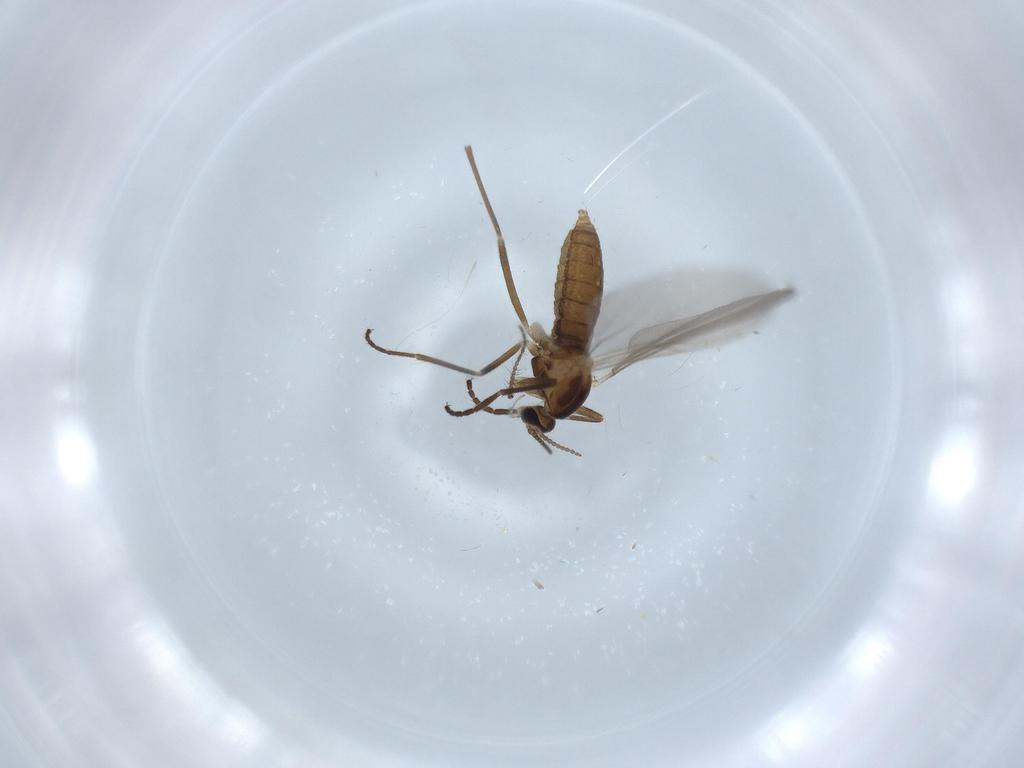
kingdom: Animalia
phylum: Arthropoda
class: Insecta
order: Diptera
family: Cecidomyiidae
